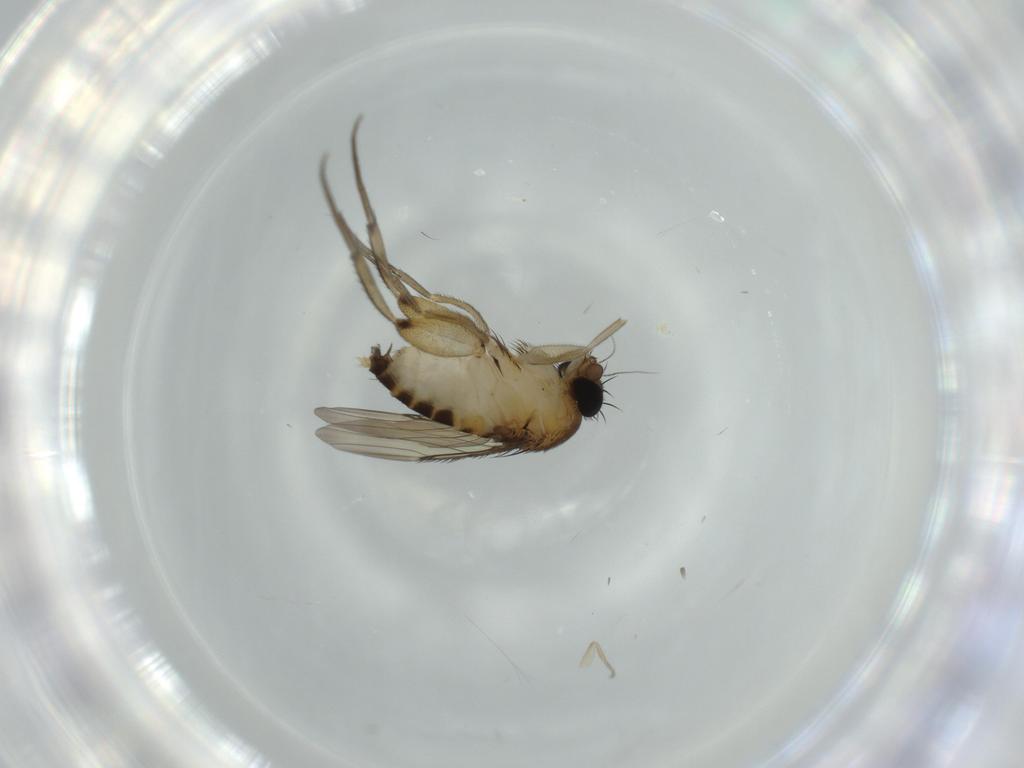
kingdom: Animalia
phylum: Arthropoda
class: Insecta
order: Diptera
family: Phoridae
